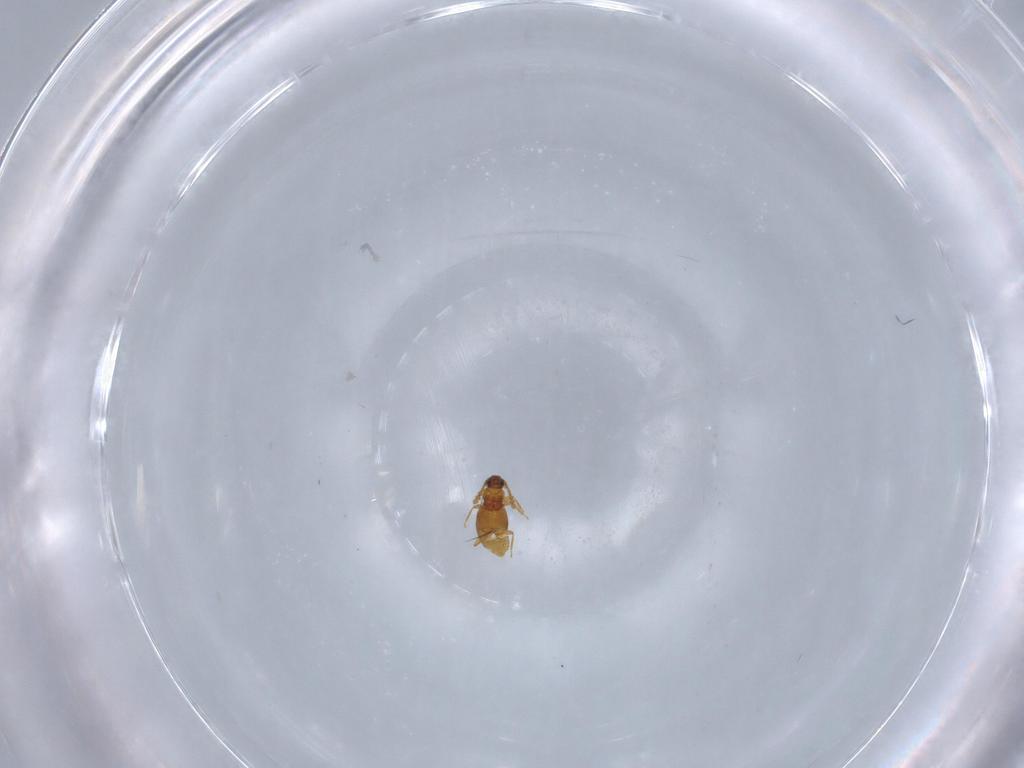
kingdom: Animalia
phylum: Arthropoda
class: Insecta
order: Coleoptera
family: Staphylinidae
